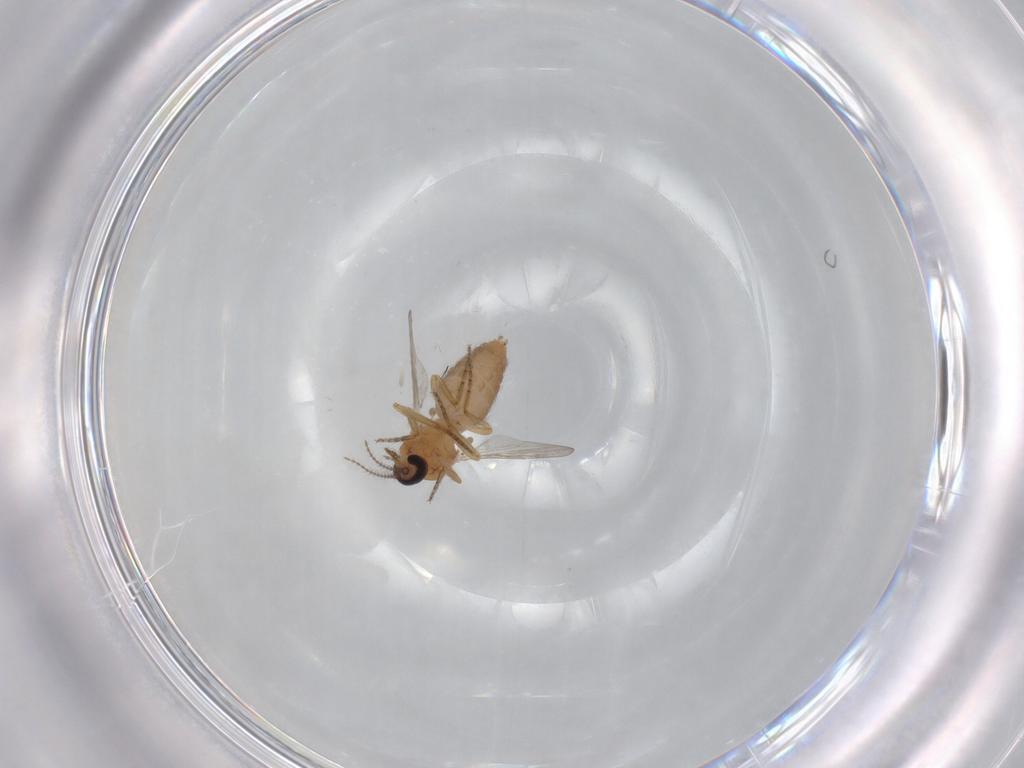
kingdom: Animalia
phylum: Arthropoda
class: Insecta
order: Diptera
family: Ceratopogonidae
